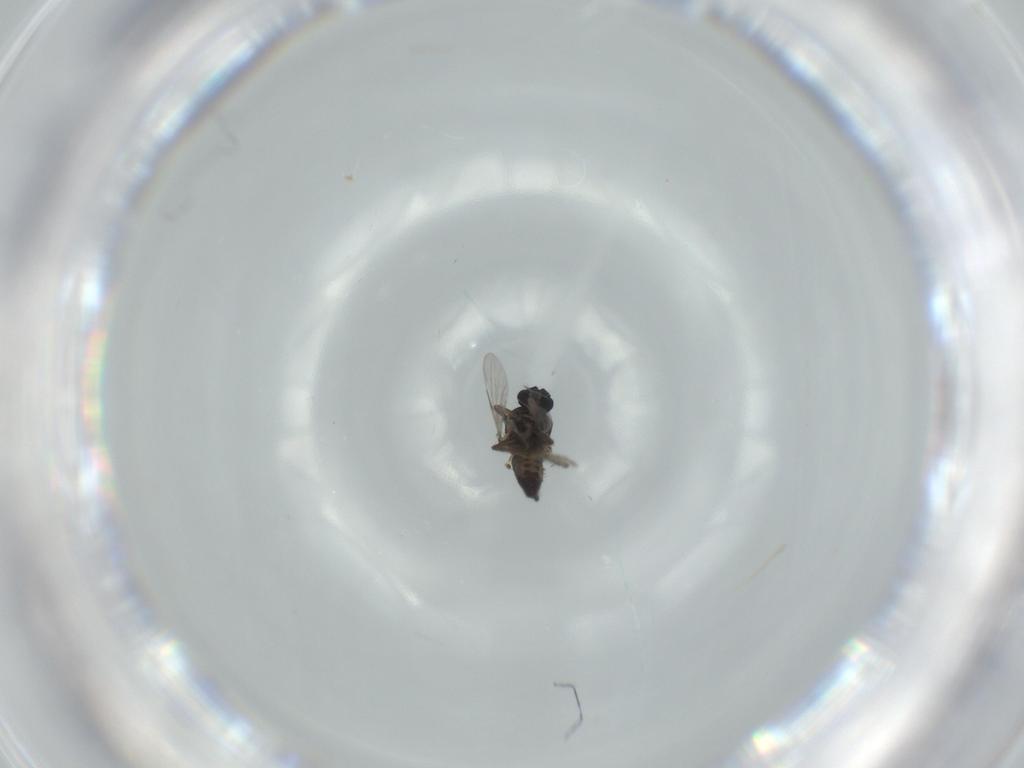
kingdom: Animalia
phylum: Arthropoda
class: Insecta
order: Diptera
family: Ceratopogonidae
